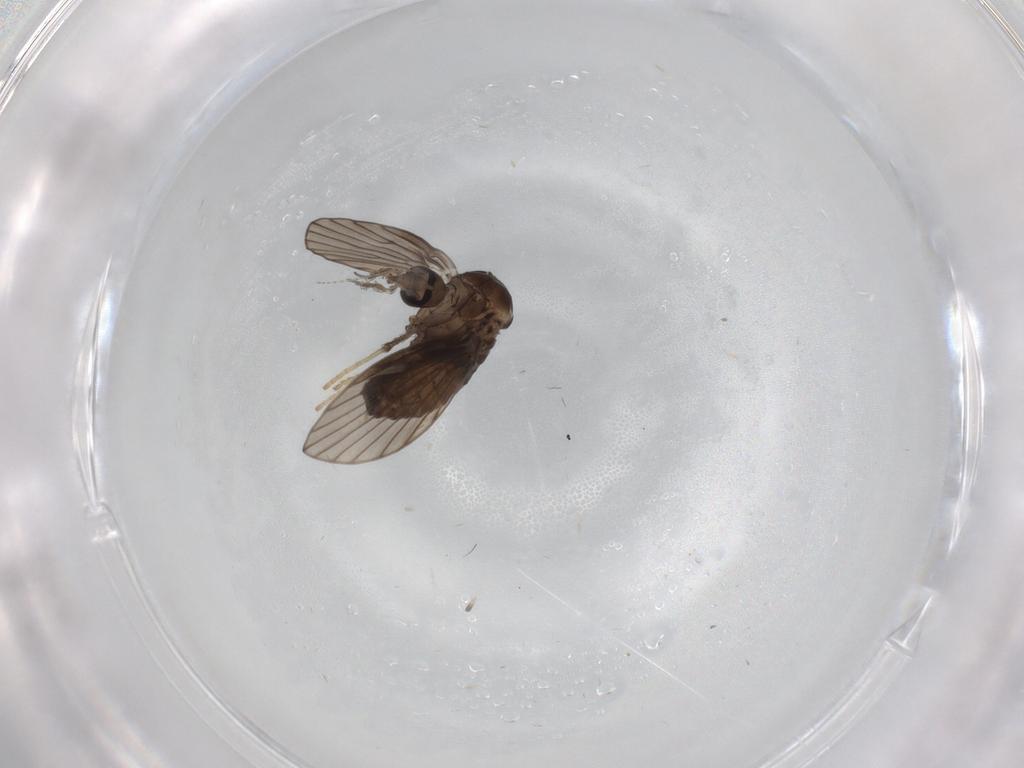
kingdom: Animalia
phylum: Arthropoda
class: Insecta
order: Diptera
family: Psychodidae
